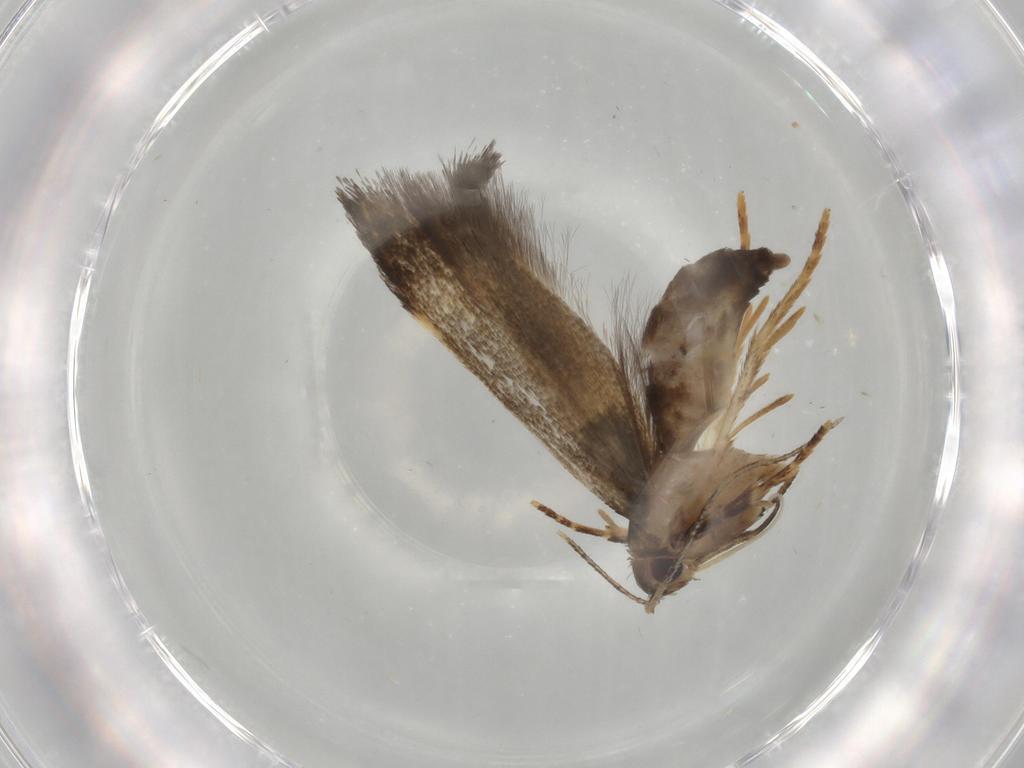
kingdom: Animalia
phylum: Arthropoda
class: Insecta
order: Lepidoptera
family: Cosmopterigidae
